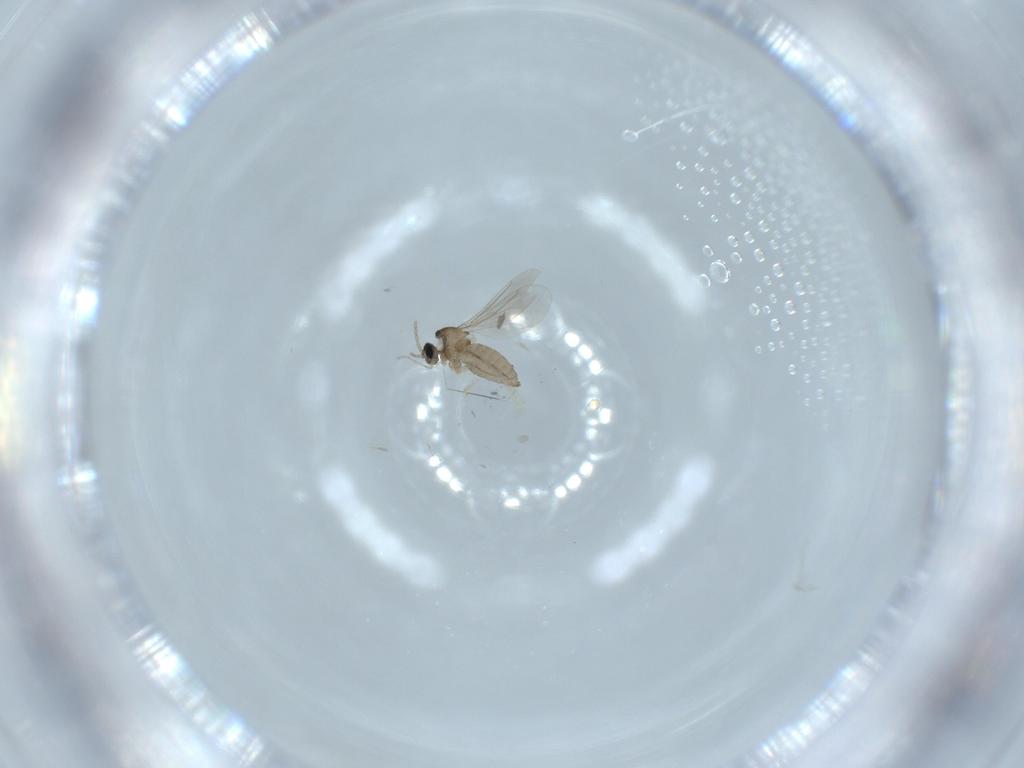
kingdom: Animalia
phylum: Arthropoda
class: Insecta
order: Diptera
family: Cecidomyiidae
